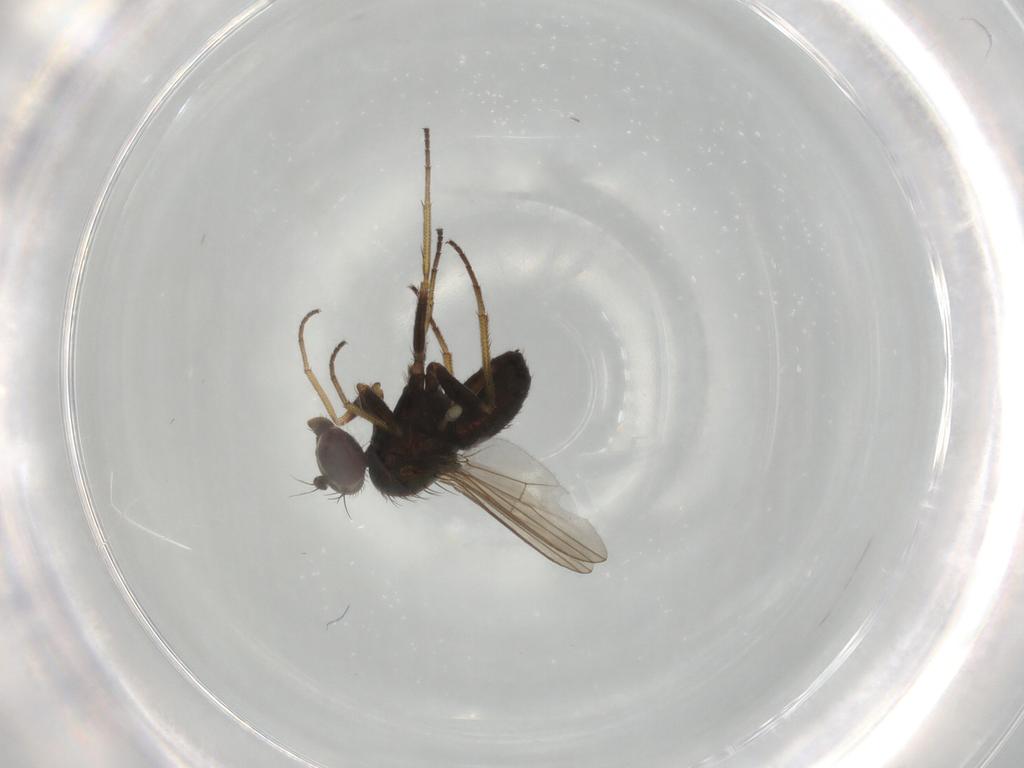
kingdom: Animalia
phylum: Arthropoda
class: Insecta
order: Diptera
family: Dolichopodidae
